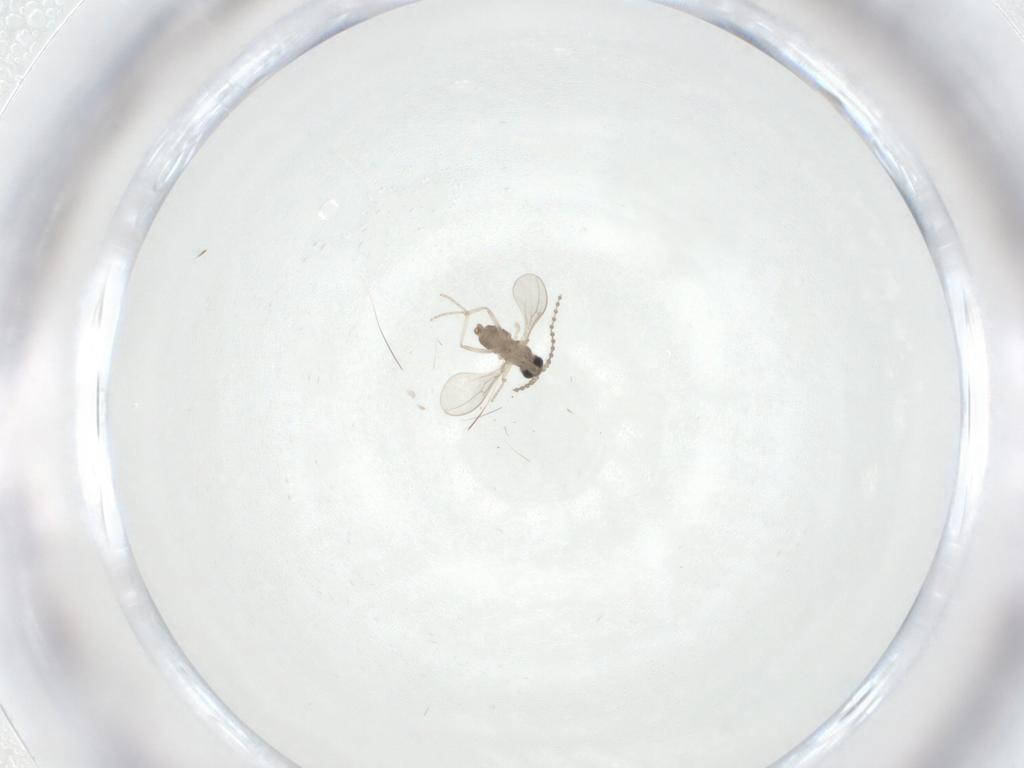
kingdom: Animalia
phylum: Arthropoda
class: Insecta
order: Diptera
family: Cecidomyiidae
